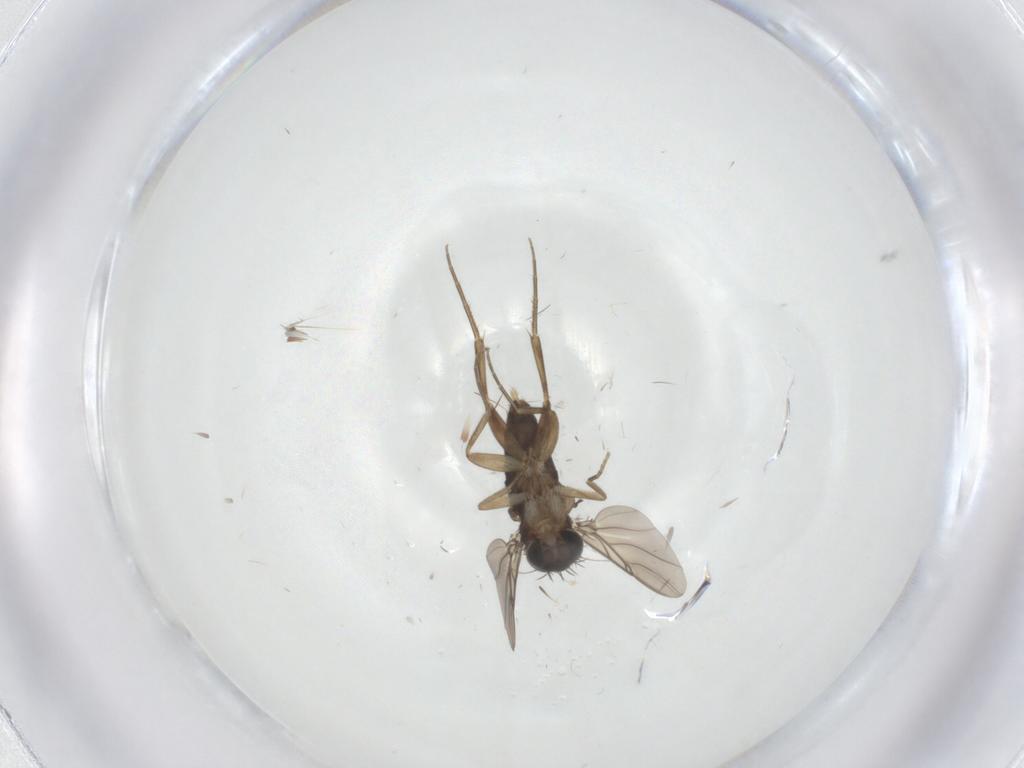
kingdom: Animalia
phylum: Arthropoda
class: Insecta
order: Diptera
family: Phoridae
